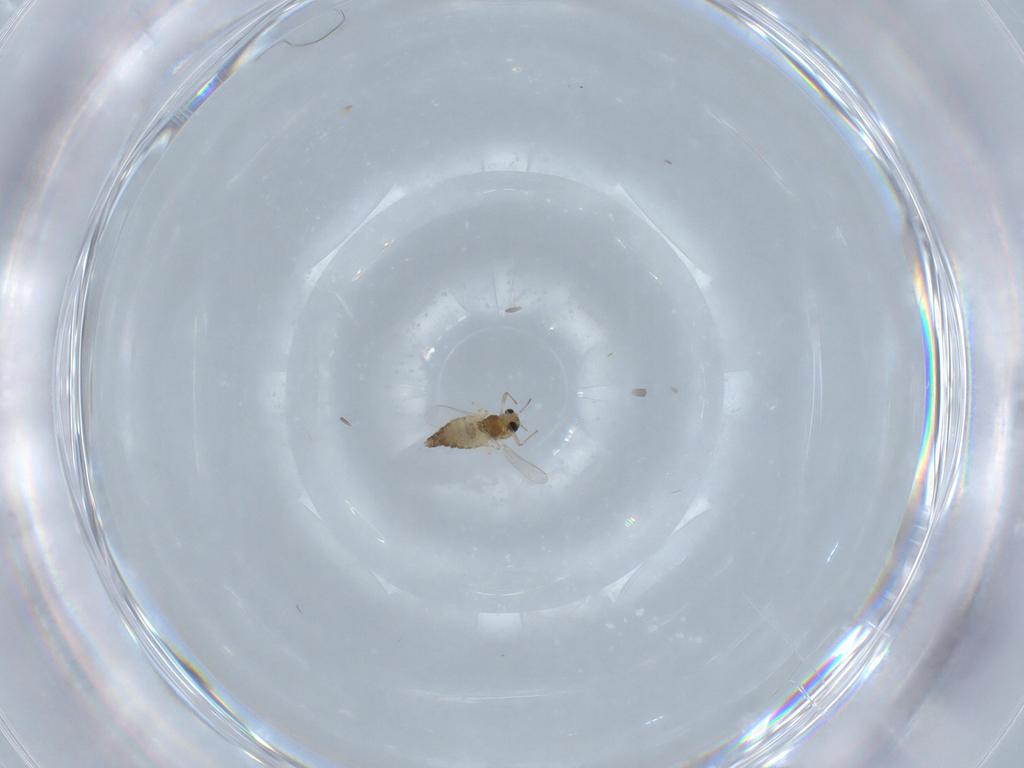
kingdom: Animalia
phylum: Arthropoda
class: Insecta
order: Diptera
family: Chironomidae
